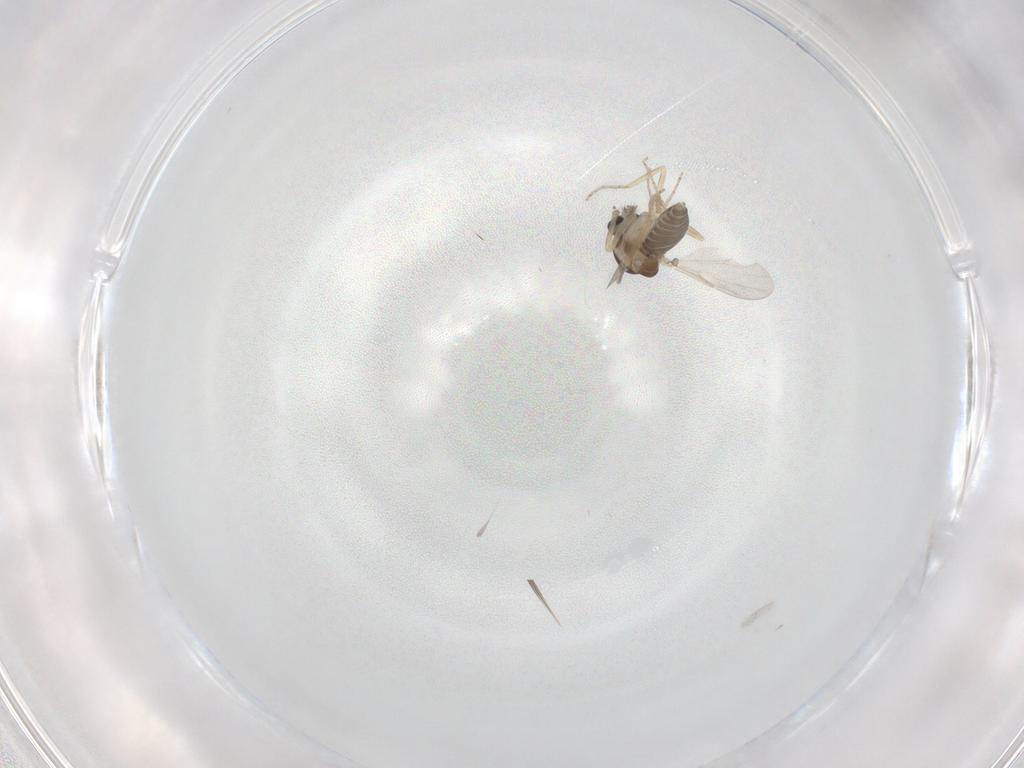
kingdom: Animalia
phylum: Arthropoda
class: Insecta
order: Diptera
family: Ceratopogonidae
